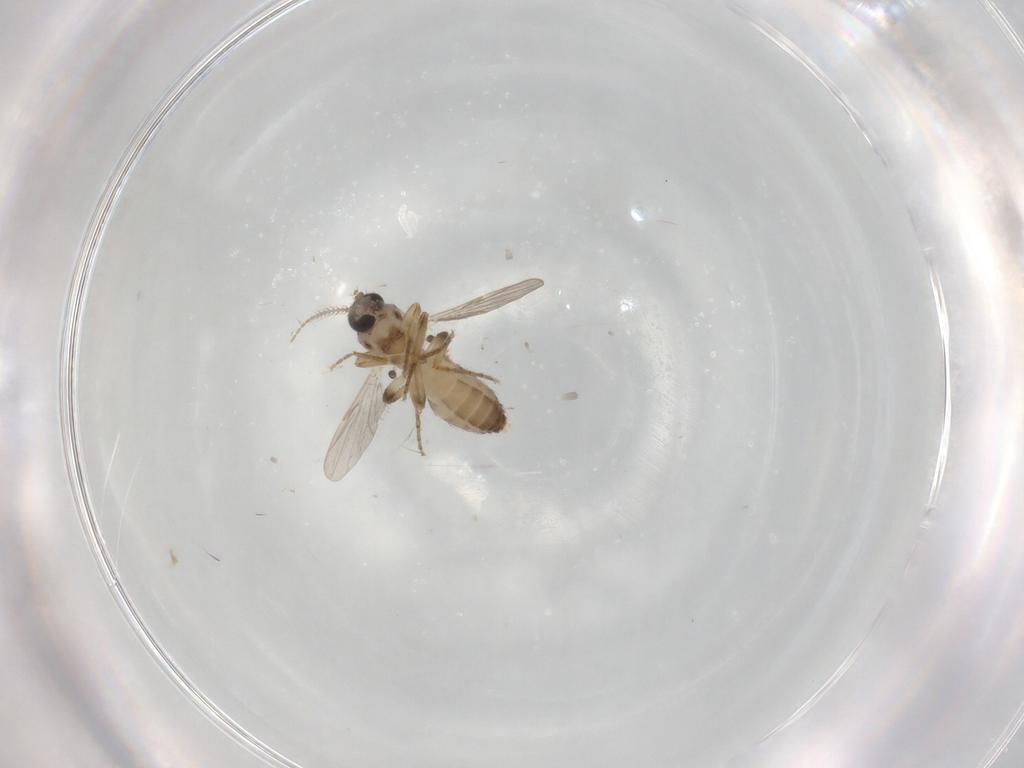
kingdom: Animalia
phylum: Arthropoda
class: Insecta
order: Diptera
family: Ceratopogonidae
